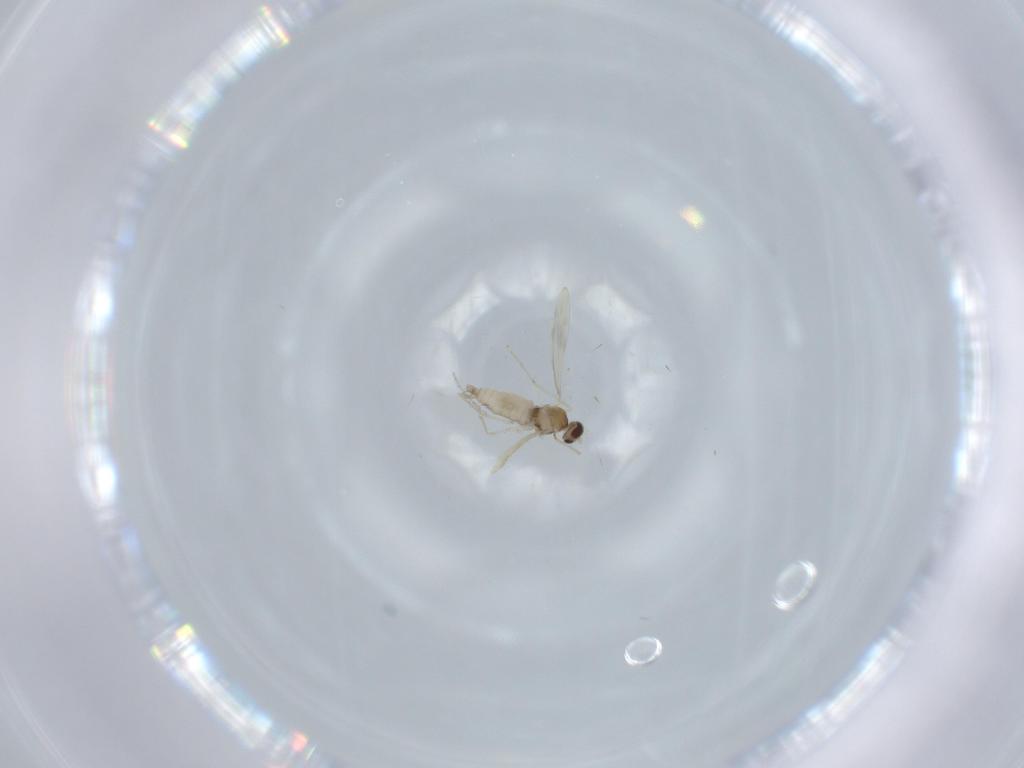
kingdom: Animalia
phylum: Arthropoda
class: Insecta
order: Diptera
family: Cecidomyiidae
